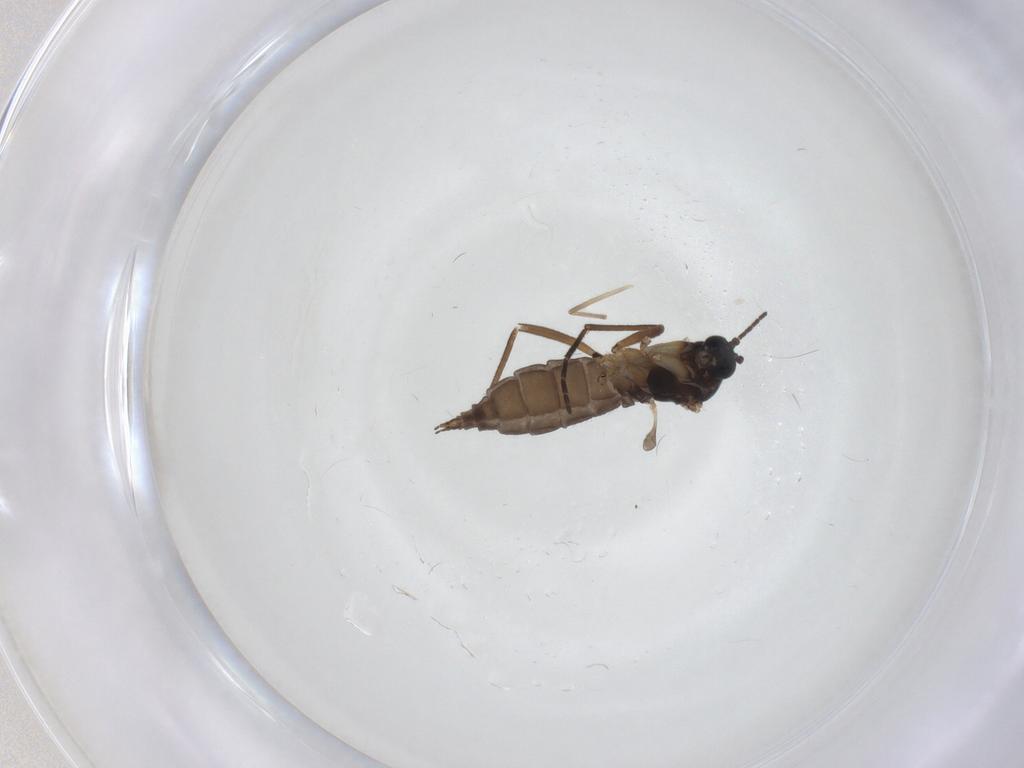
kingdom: Animalia
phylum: Arthropoda
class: Insecta
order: Diptera
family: Sciaridae
